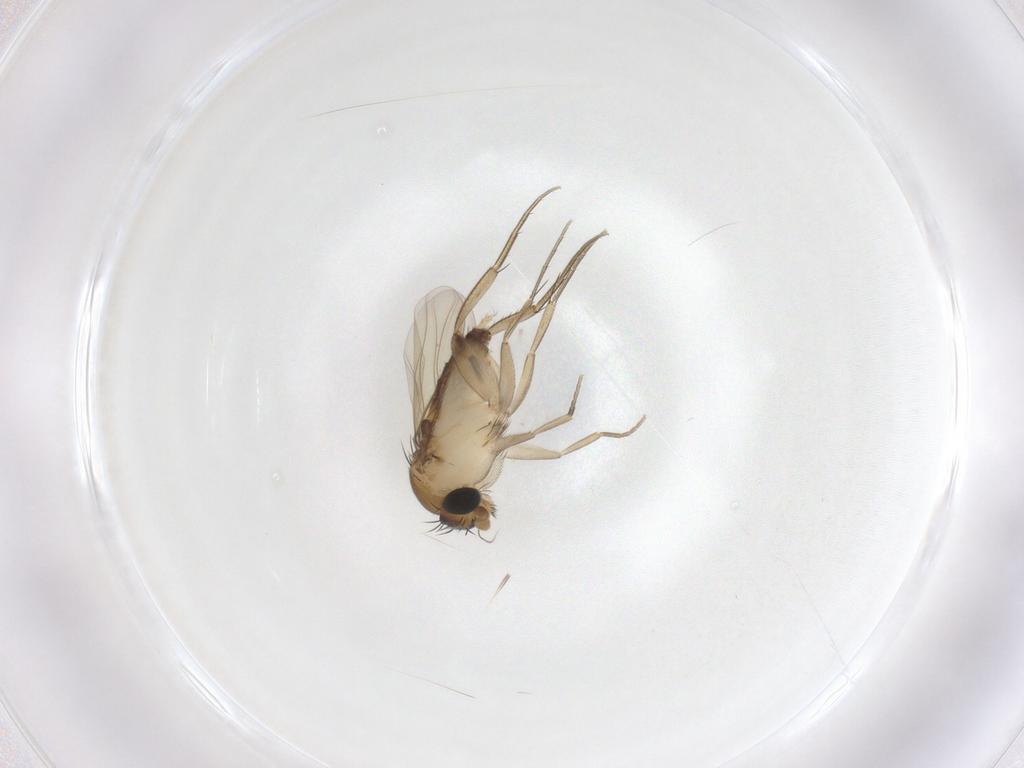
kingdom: Animalia
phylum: Arthropoda
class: Insecta
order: Diptera
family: Phoridae
